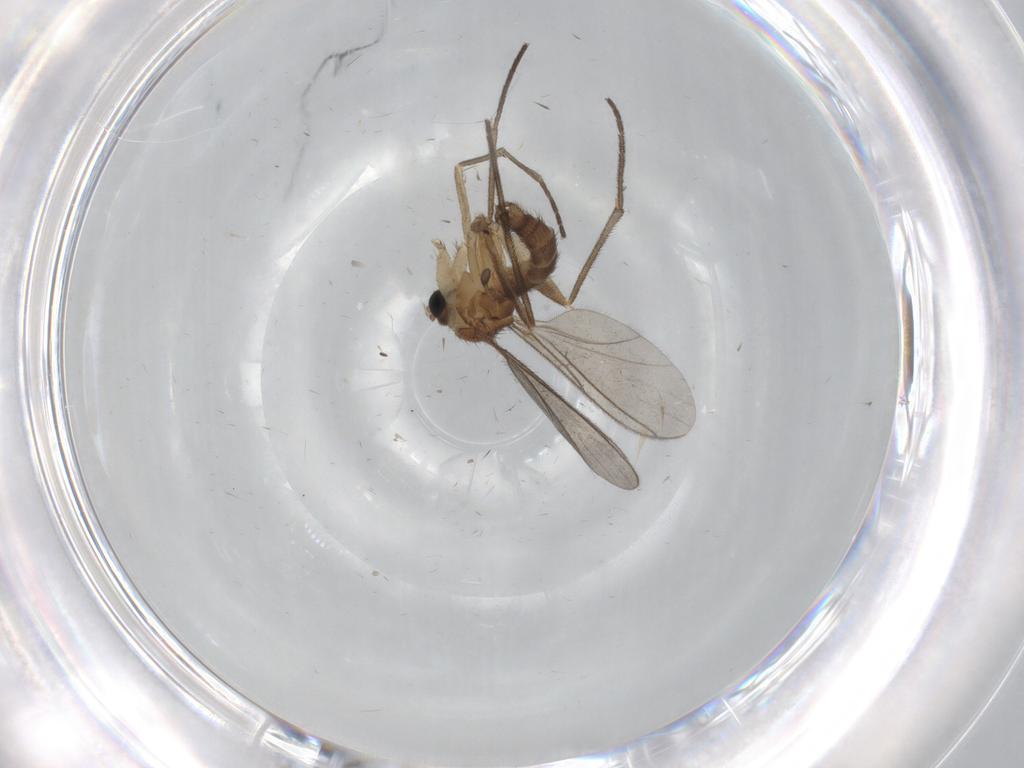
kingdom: Animalia
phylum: Arthropoda
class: Insecta
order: Diptera
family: Sciaridae
